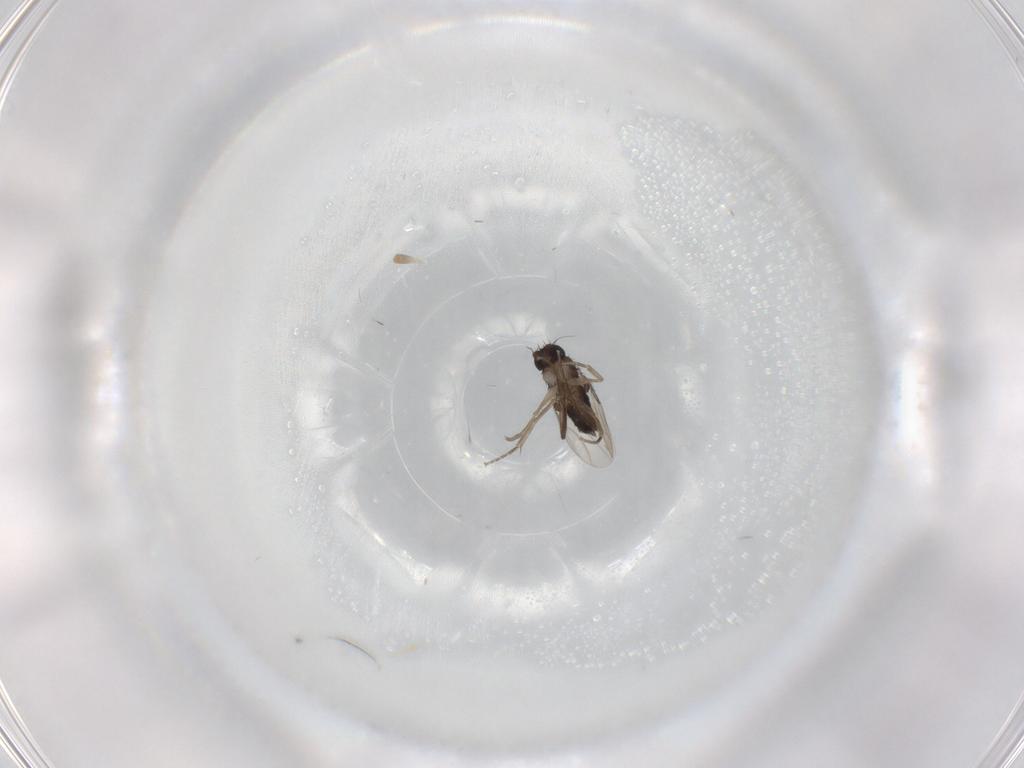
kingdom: Animalia
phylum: Arthropoda
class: Insecta
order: Diptera
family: Phoridae
